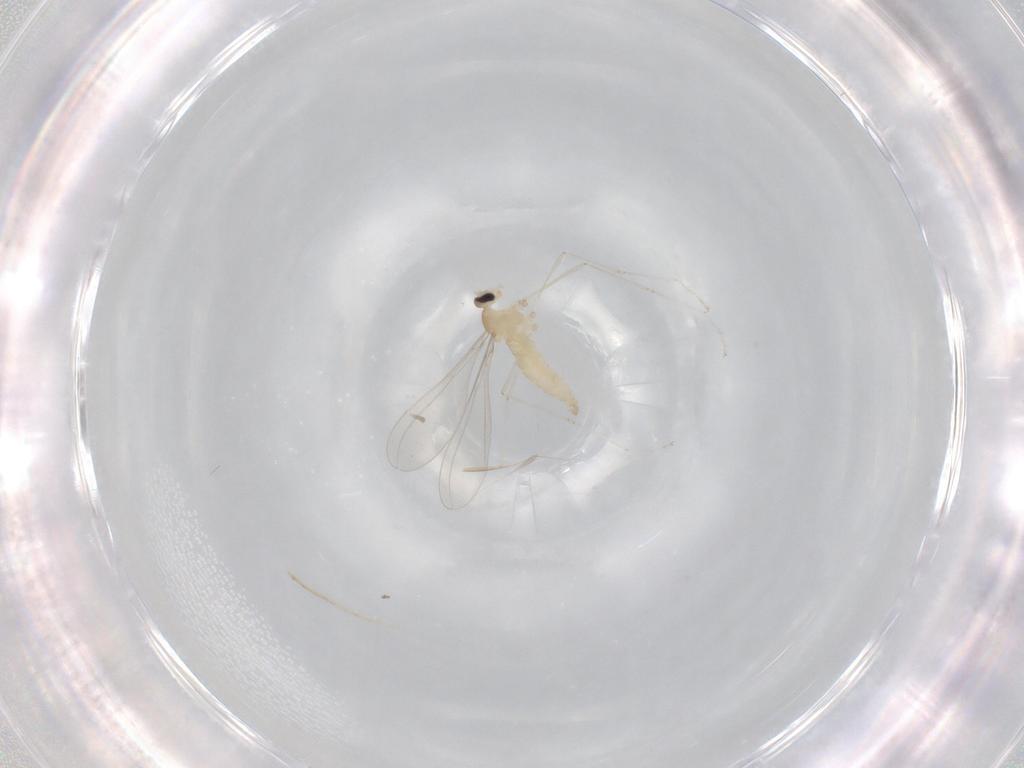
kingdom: Animalia
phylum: Arthropoda
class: Insecta
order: Diptera
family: Cecidomyiidae
